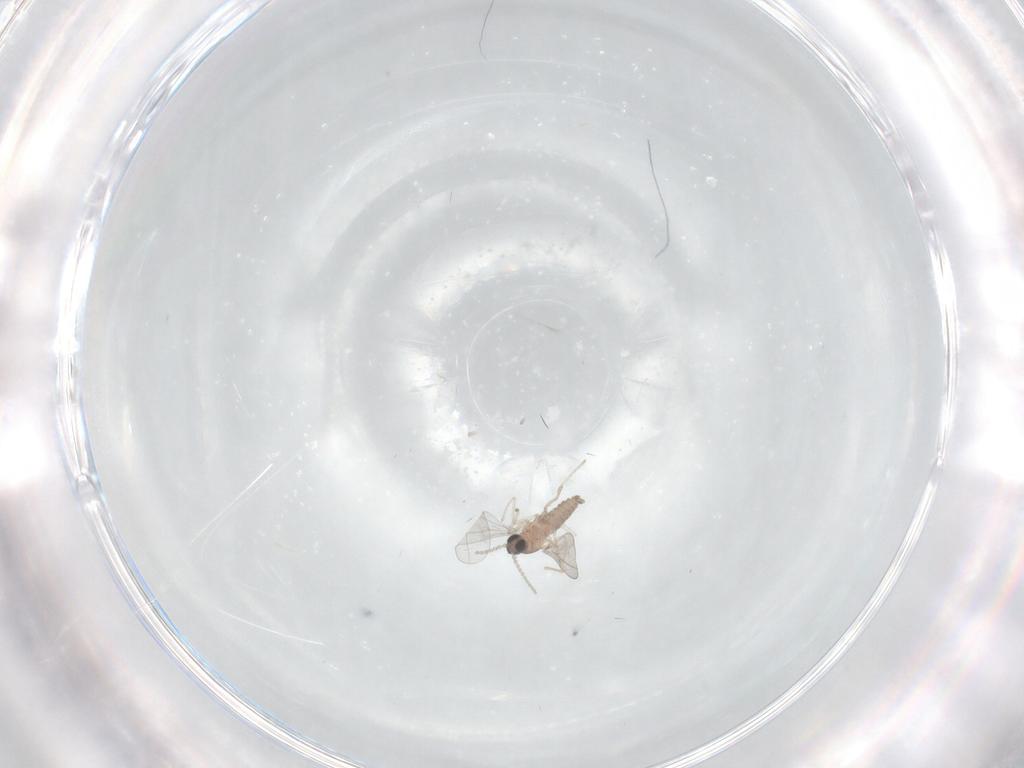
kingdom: Animalia
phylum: Arthropoda
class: Insecta
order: Diptera
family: Cecidomyiidae
